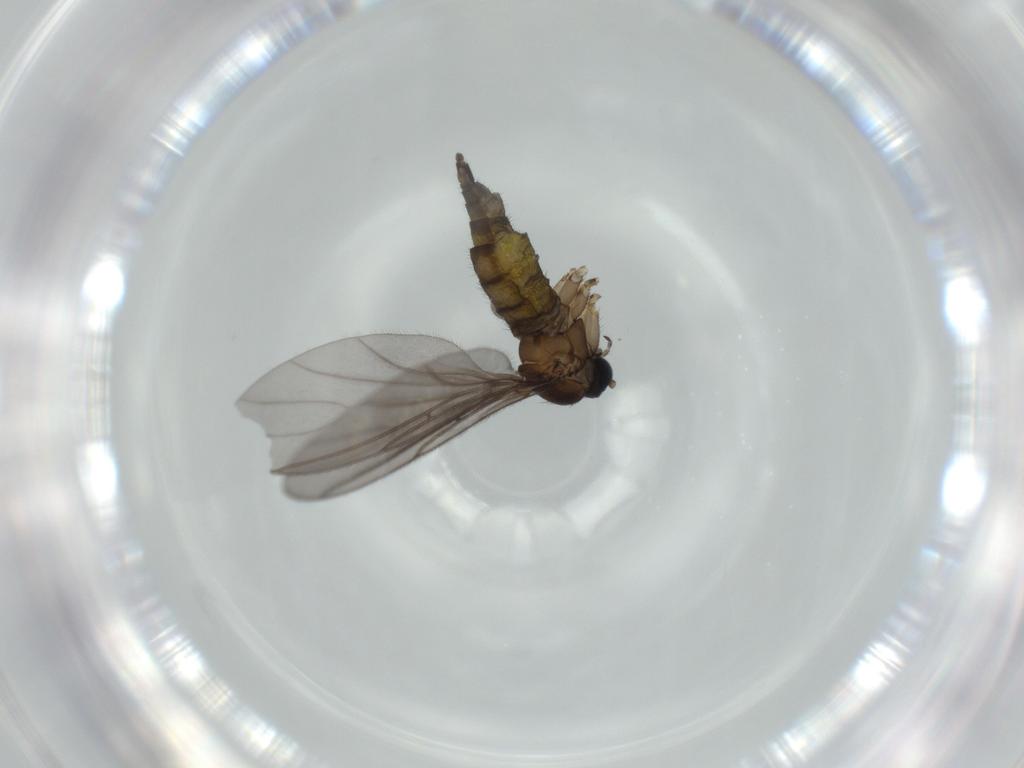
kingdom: Animalia
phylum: Arthropoda
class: Insecta
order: Diptera
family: Sciaridae
